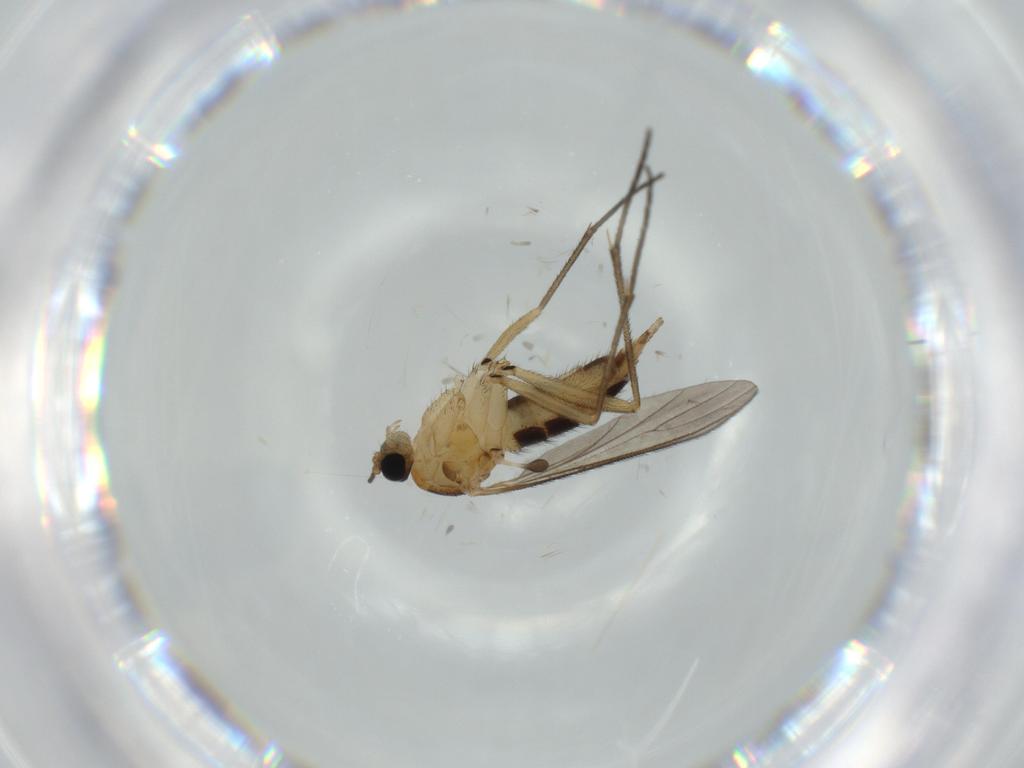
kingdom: Animalia
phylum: Arthropoda
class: Insecta
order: Diptera
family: Sciaridae
